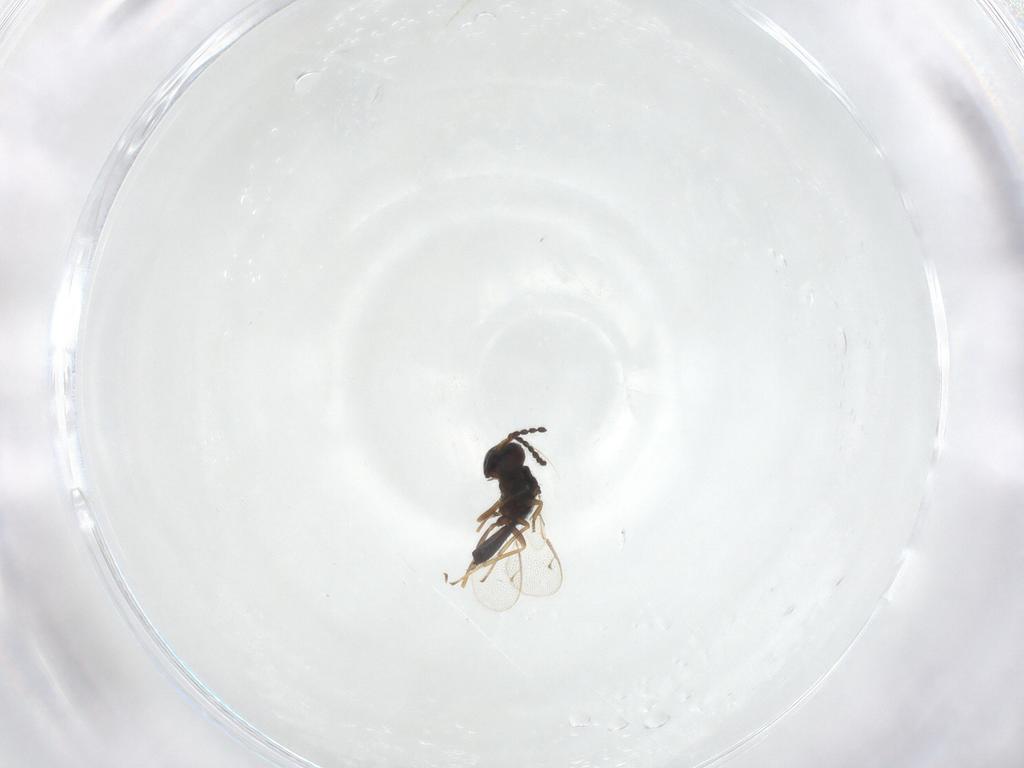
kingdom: Animalia
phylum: Arthropoda
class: Insecta
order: Hymenoptera
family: Pteromalidae
